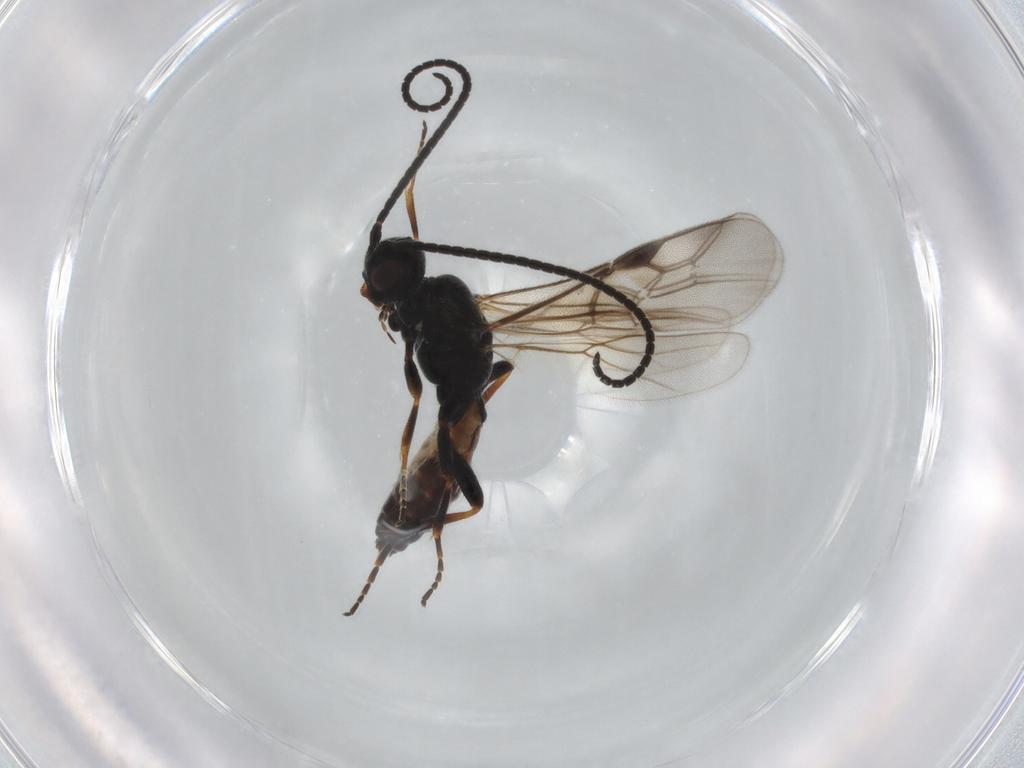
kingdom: Animalia
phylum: Arthropoda
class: Insecta
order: Hymenoptera
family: Braconidae
